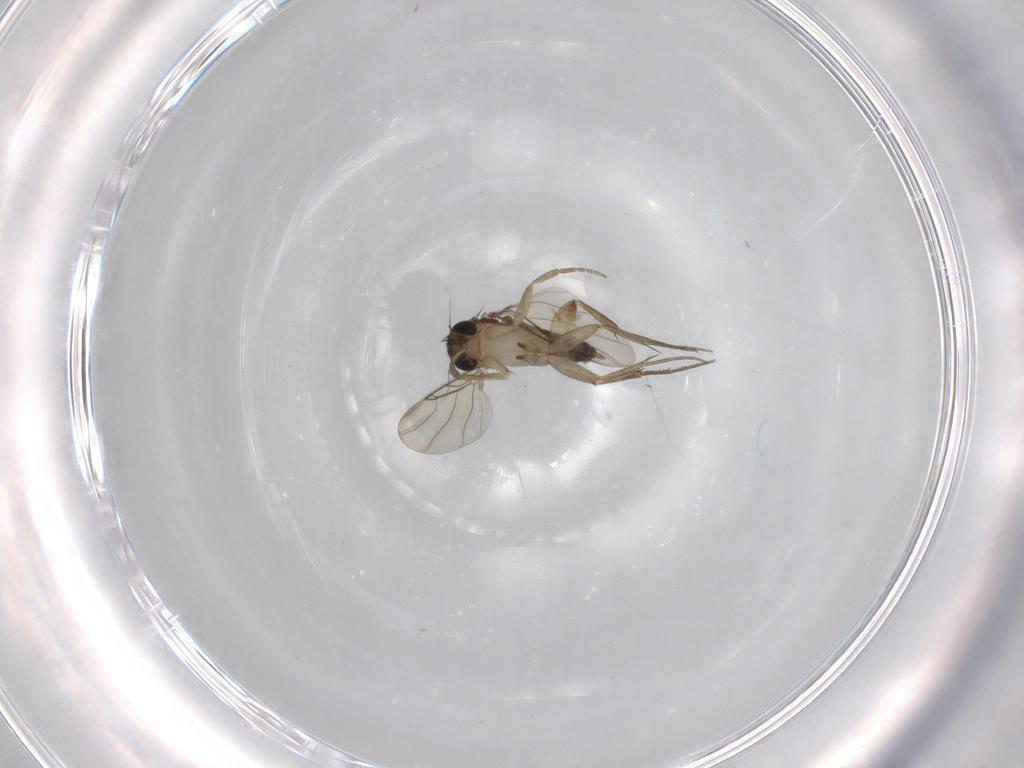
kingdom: Animalia
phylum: Arthropoda
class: Insecta
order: Diptera
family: Phoridae
